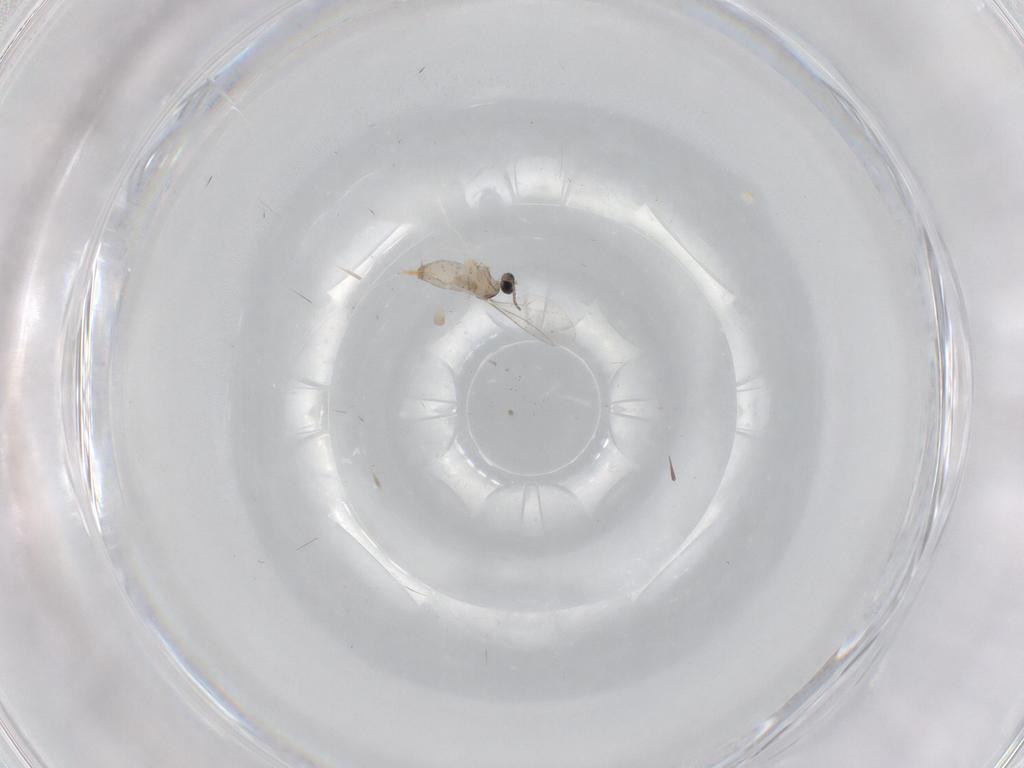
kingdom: Animalia
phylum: Arthropoda
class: Insecta
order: Diptera
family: Cecidomyiidae
